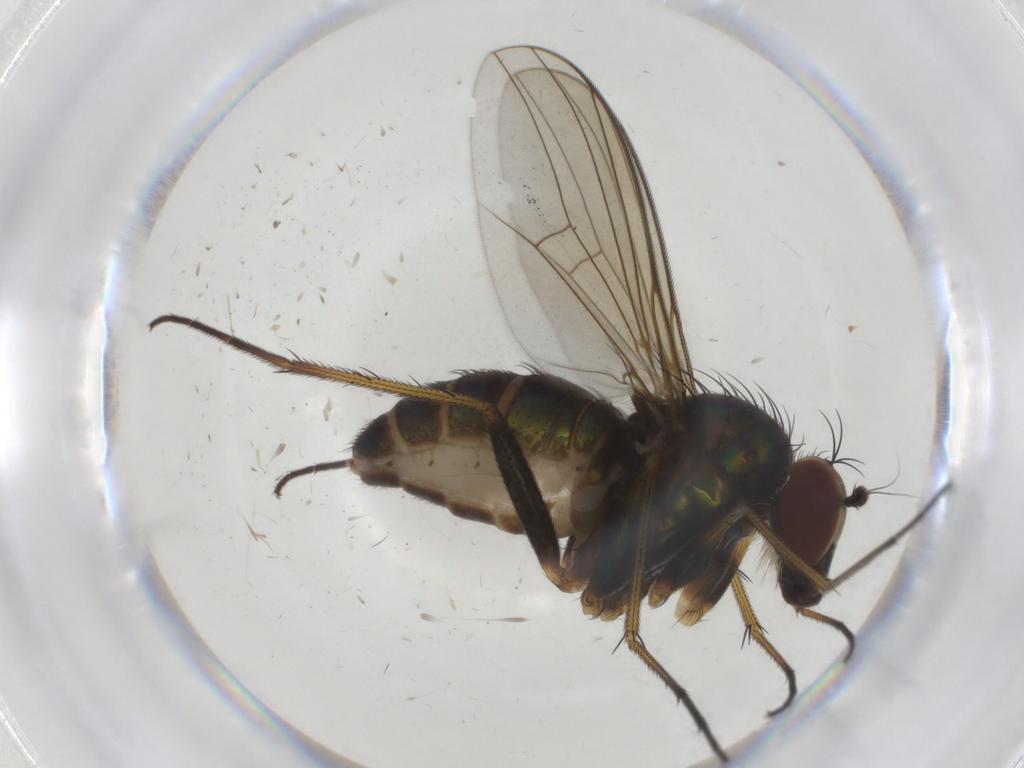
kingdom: Animalia
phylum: Arthropoda
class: Insecta
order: Diptera
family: Dolichopodidae
